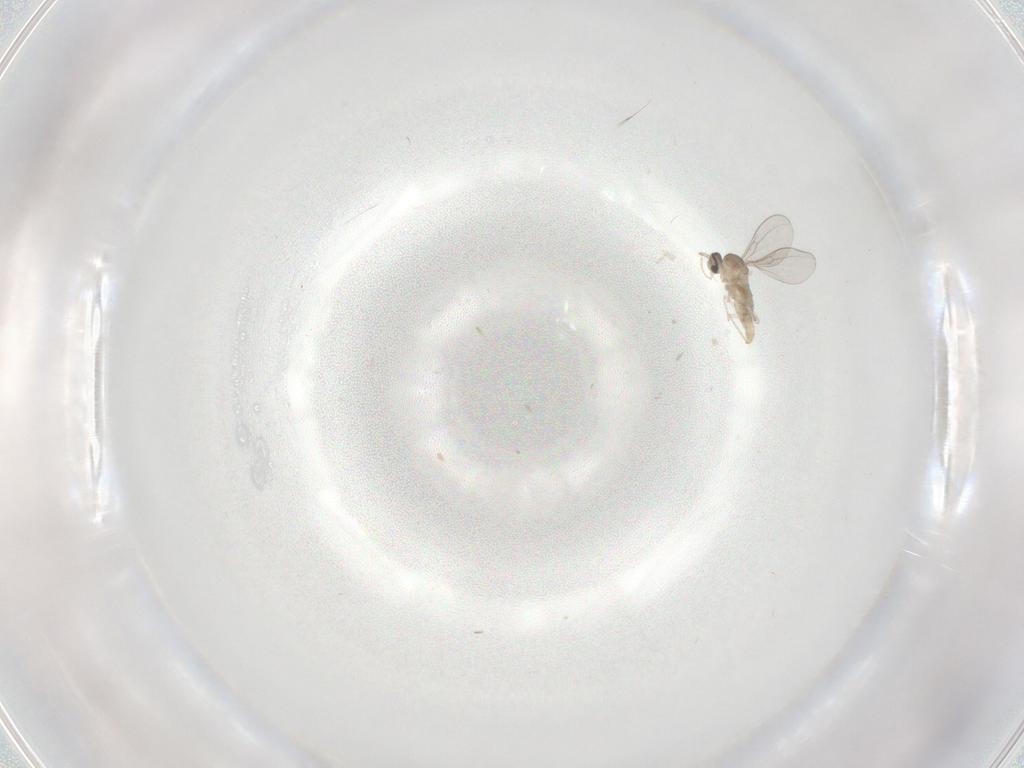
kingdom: Animalia
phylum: Arthropoda
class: Insecta
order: Diptera
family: Cecidomyiidae
